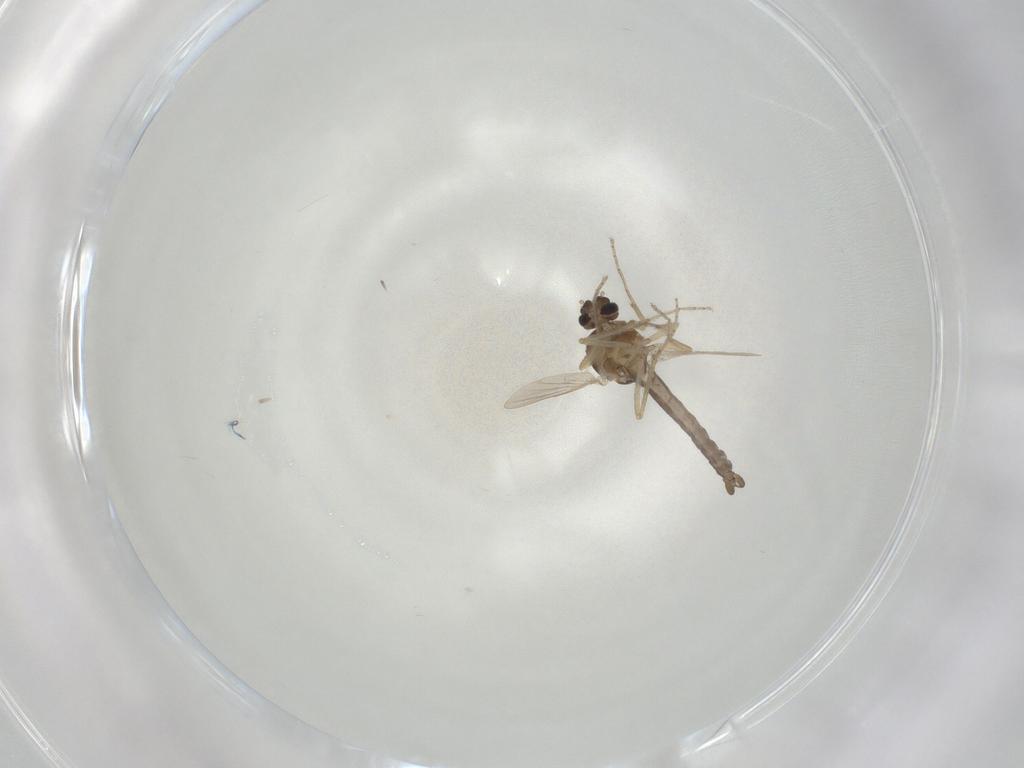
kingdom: Animalia
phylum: Arthropoda
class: Insecta
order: Diptera
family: Ceratopogonidae
